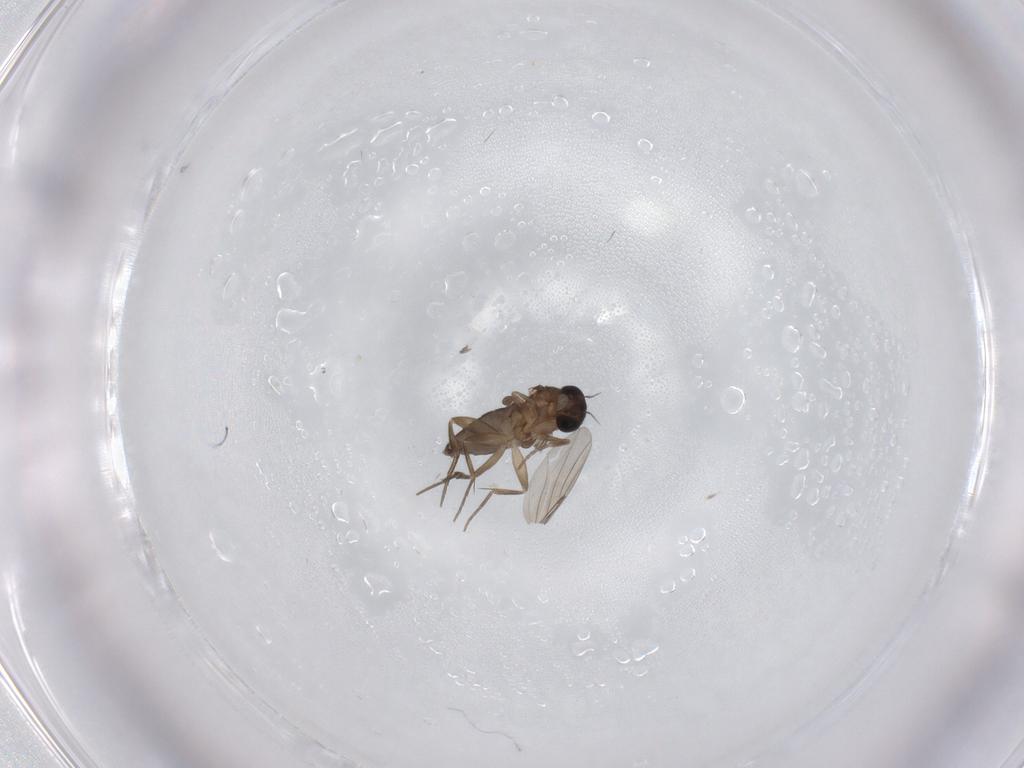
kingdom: Animalia
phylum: Arthropoda
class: Insecta
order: Diptera
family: Phoridae
